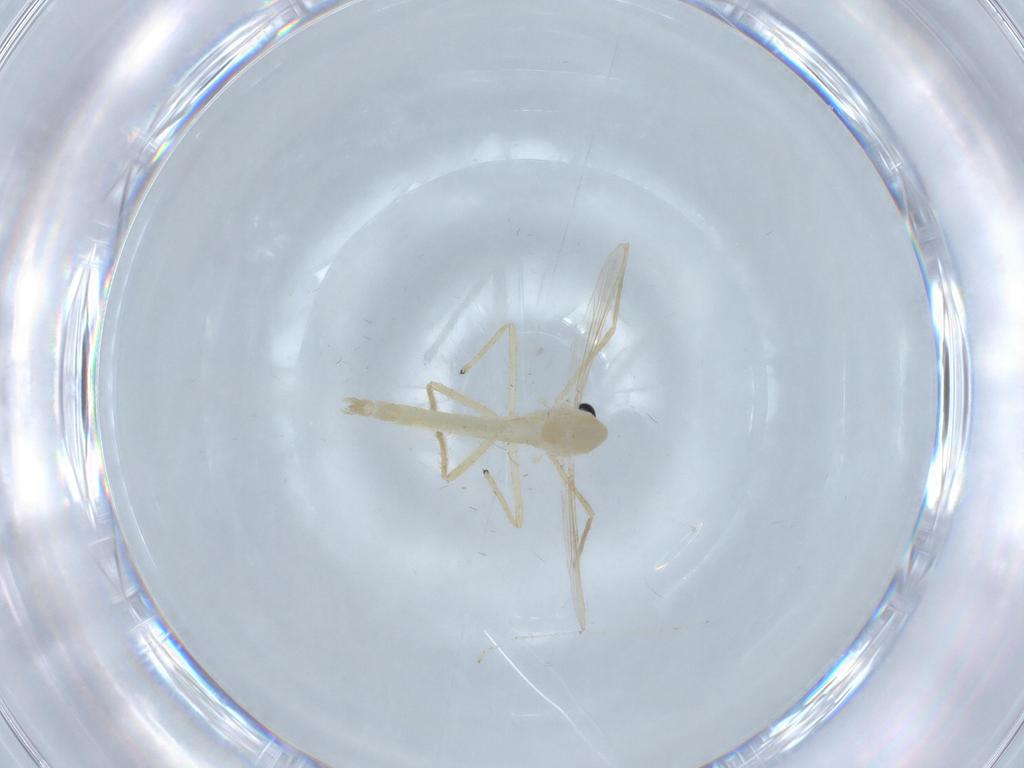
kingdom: Animalia
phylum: Arthropoda
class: Insecta
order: Diptera
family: Cecidomyiidae
